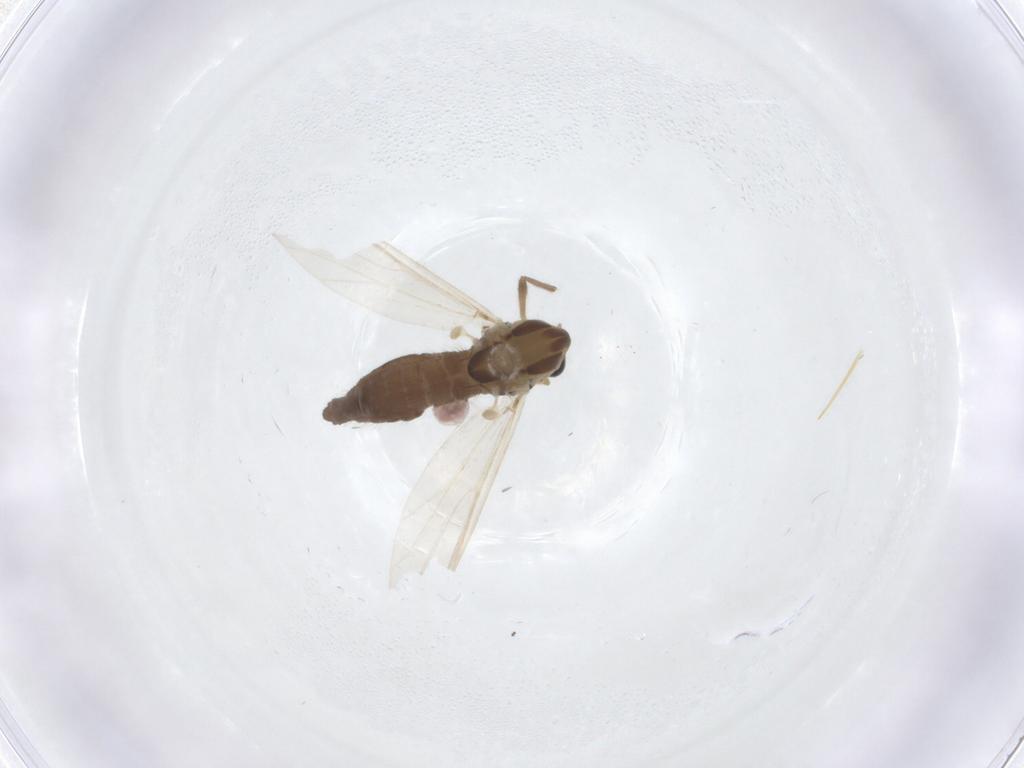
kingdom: Animalia
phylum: Arthropoda
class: Insecta
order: Diptera
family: Chironomidae
